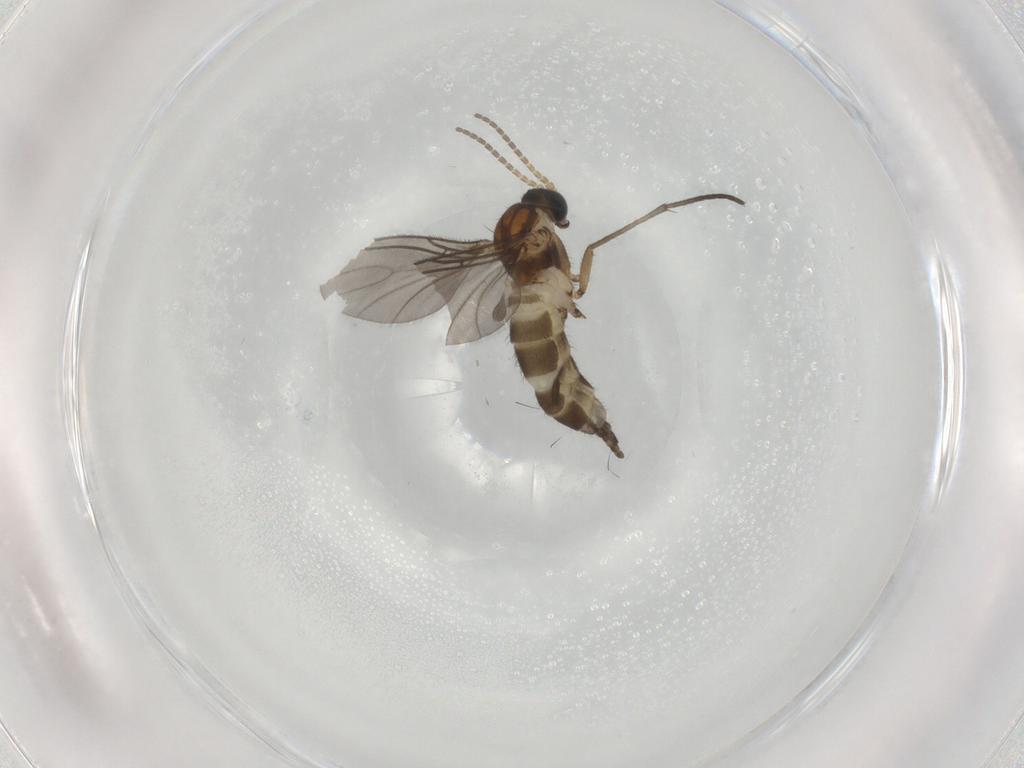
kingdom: Animalia
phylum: Arthropoda
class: Insecta
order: Diptera
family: Sciaridae
